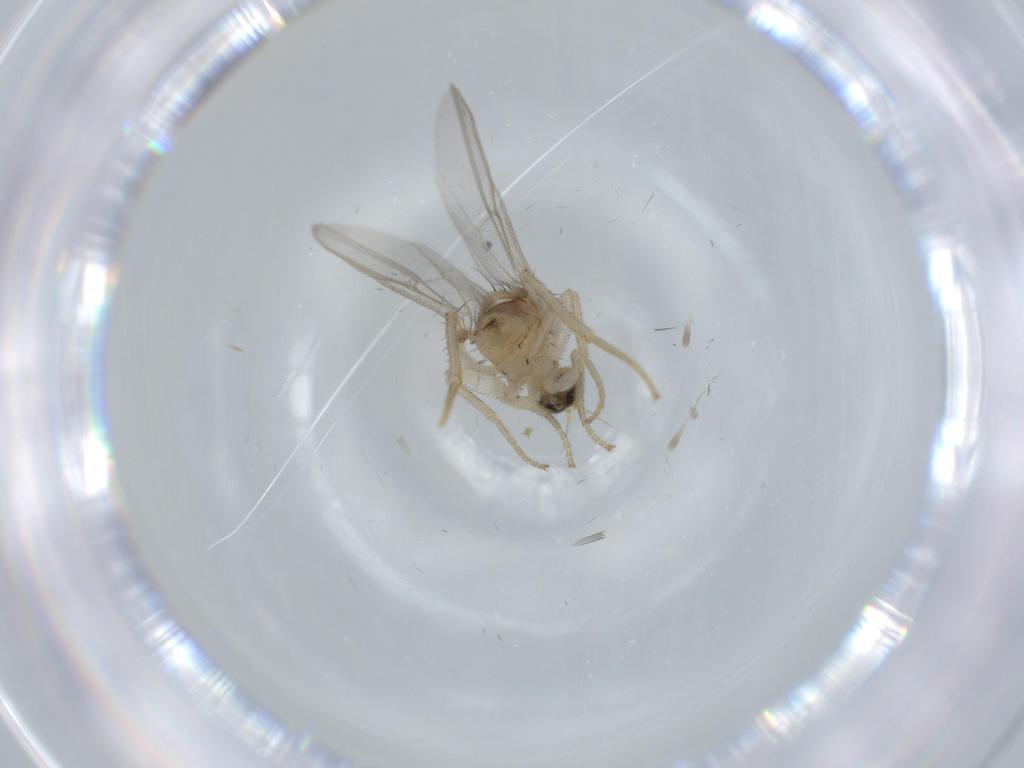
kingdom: Animalia
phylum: Arthropoda
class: Insecta
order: Diptera
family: Hybotidae
